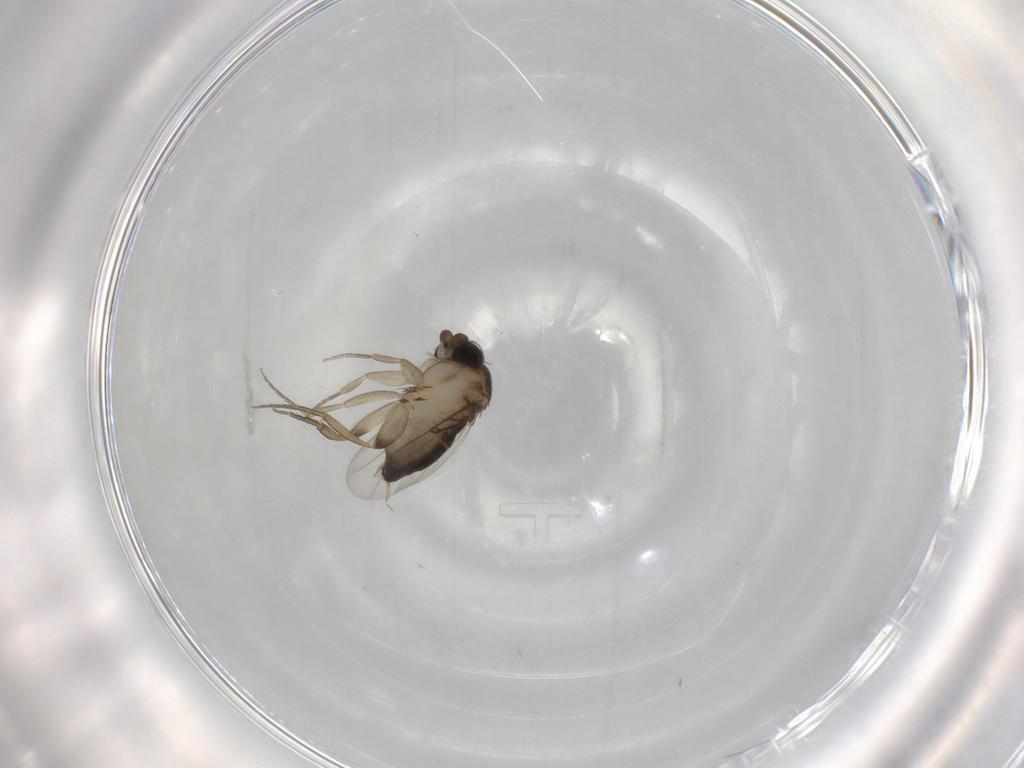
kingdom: Animalia
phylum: Arthropoda
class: Insecta
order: Diptera
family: Phoridae
